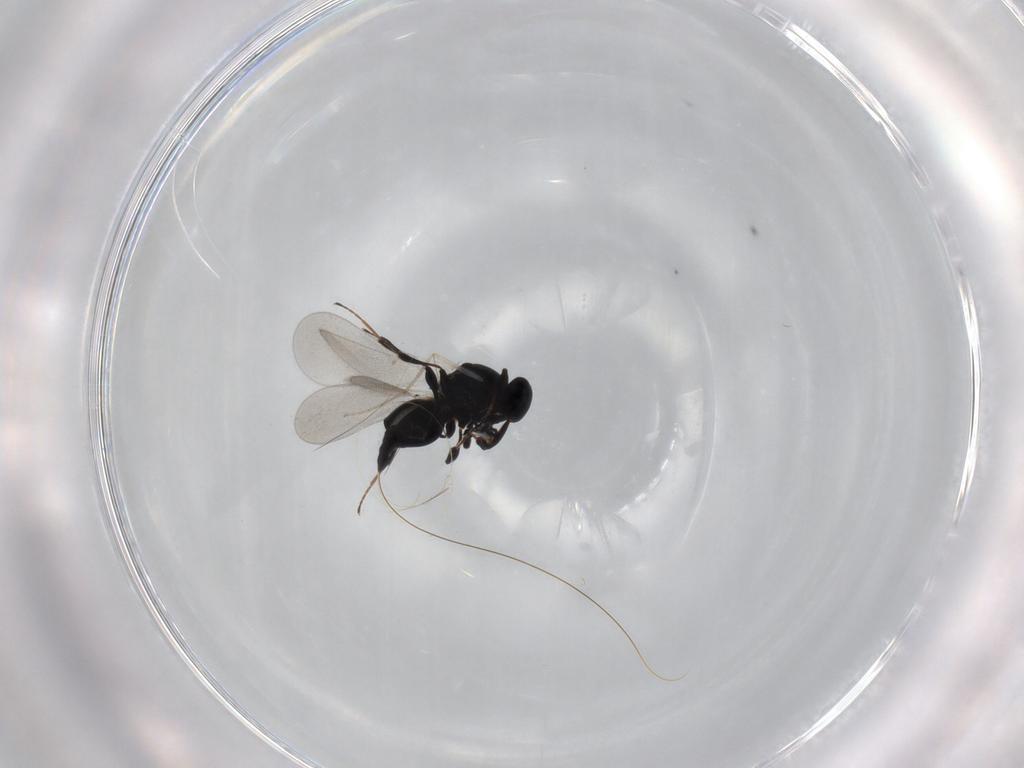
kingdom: Animalia
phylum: Arthropoda
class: Insecta
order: Hymenoptera
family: Platygastridae
